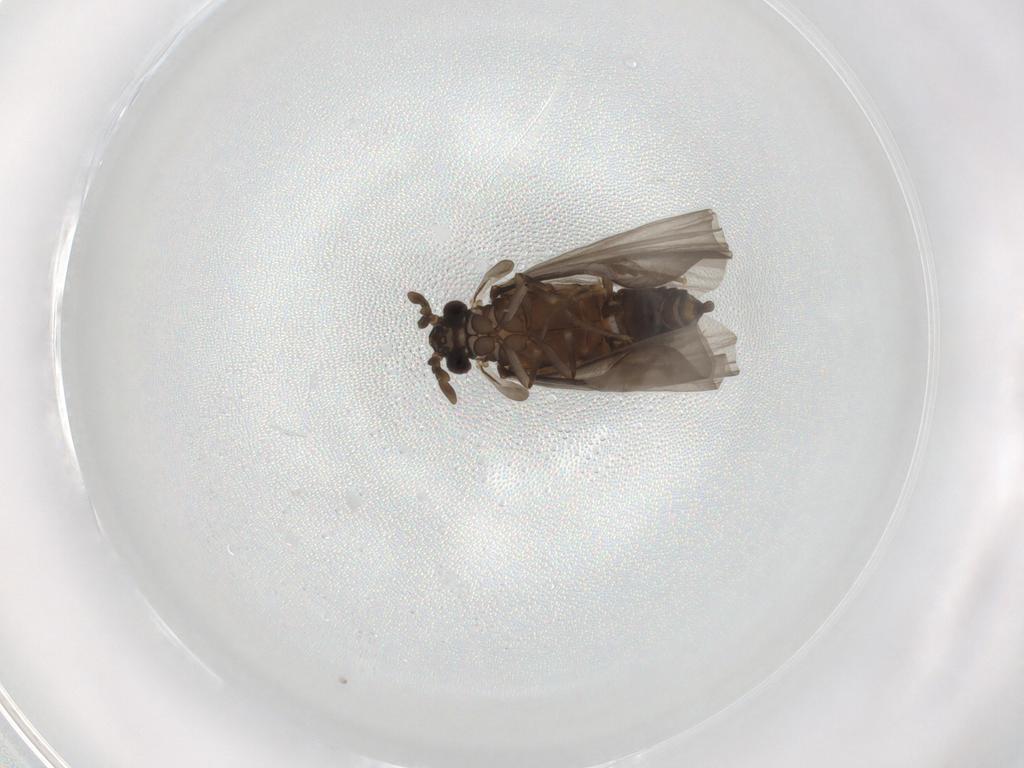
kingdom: Animalia
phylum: Arthropoda
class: Insecta
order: Strepsiptera
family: Mengenillidae
